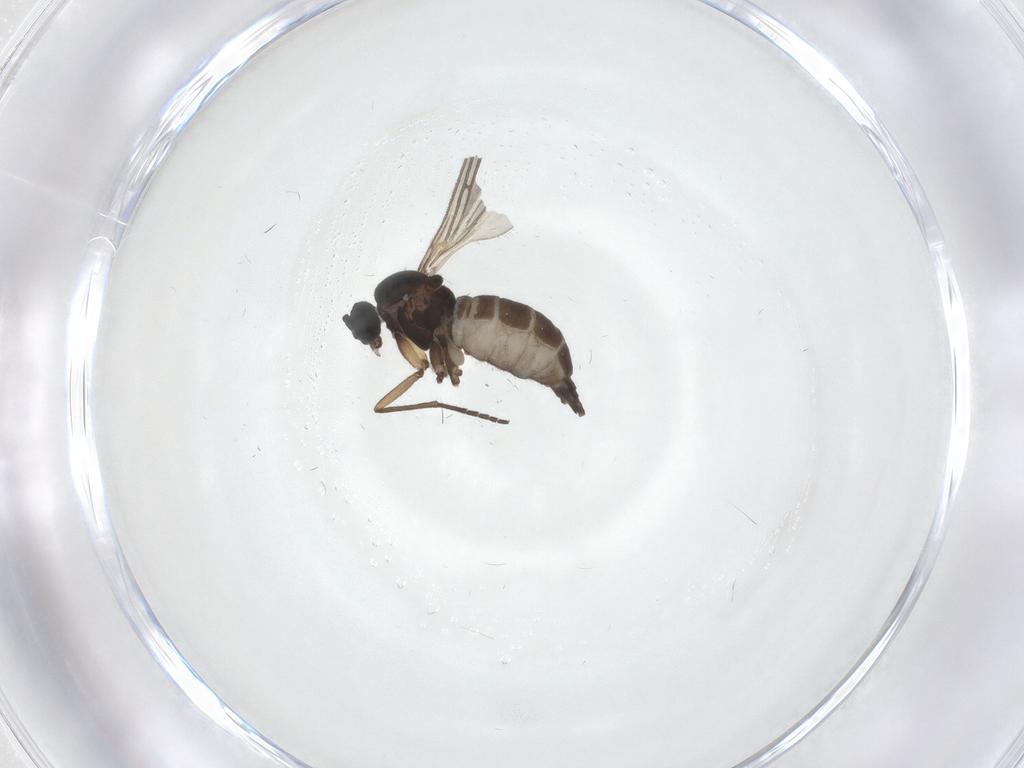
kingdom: Animalia
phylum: Arthropoda
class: Insecta
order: Diptera
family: Sciaridae
